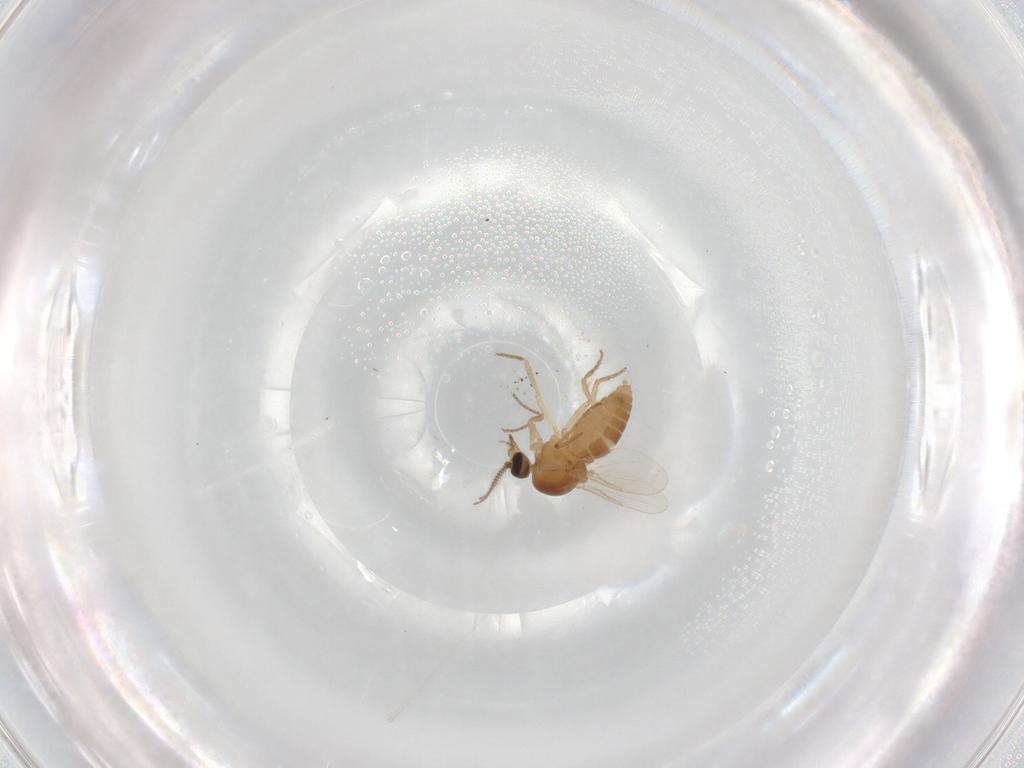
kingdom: Animalia
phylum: Arthropoda
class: Insecta
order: Diptera
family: Ceratopogonidae
